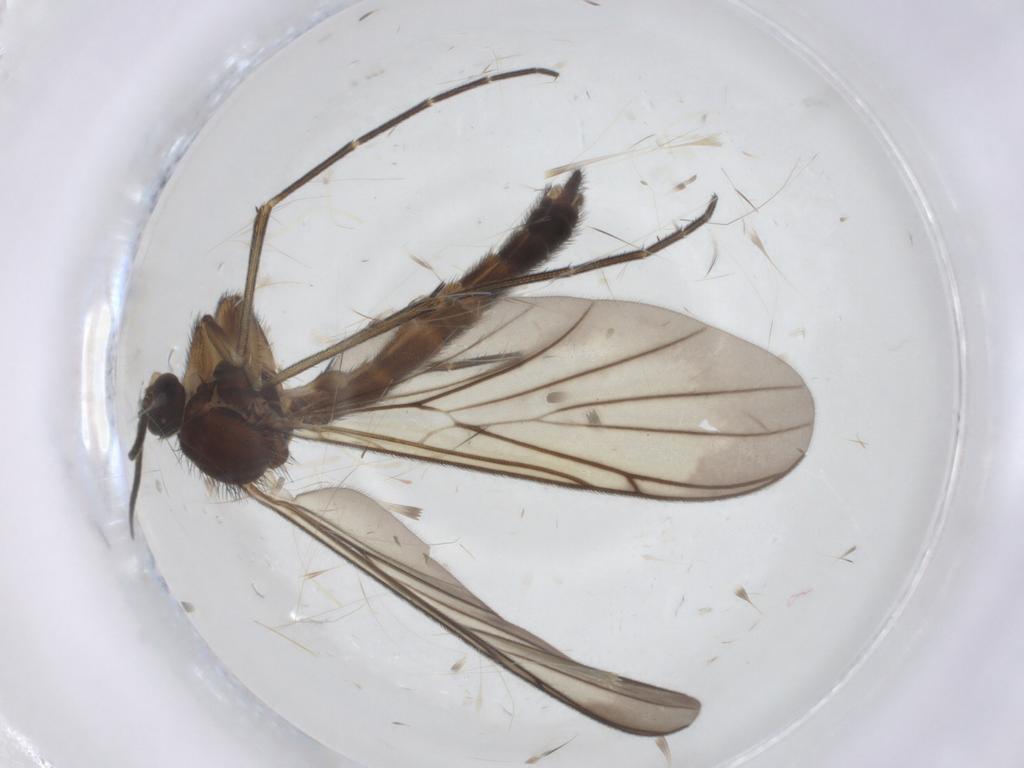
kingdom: Animalia
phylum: Arthropoda
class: Insecta
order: Diptera
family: Keroplatidae
